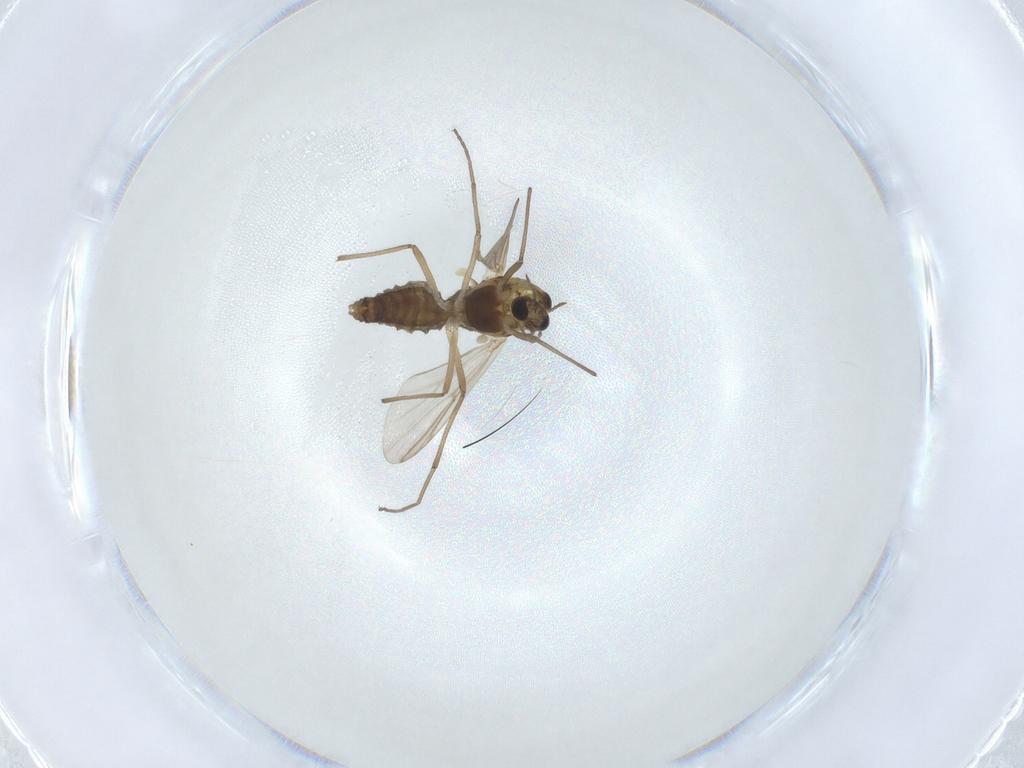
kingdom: Animalia
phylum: Arthropoda
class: Insecta
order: Diptera
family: Chironomidae
